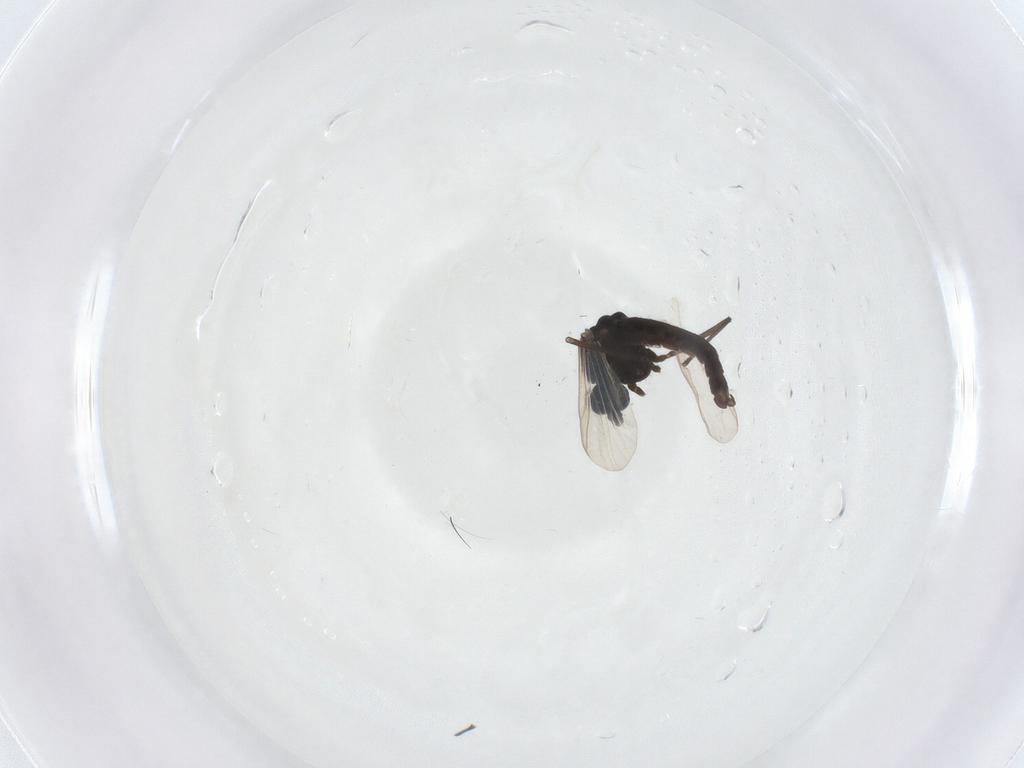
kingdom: Animalia
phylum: Arthropoda
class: Insecta
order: Diptera
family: Chironomidae
